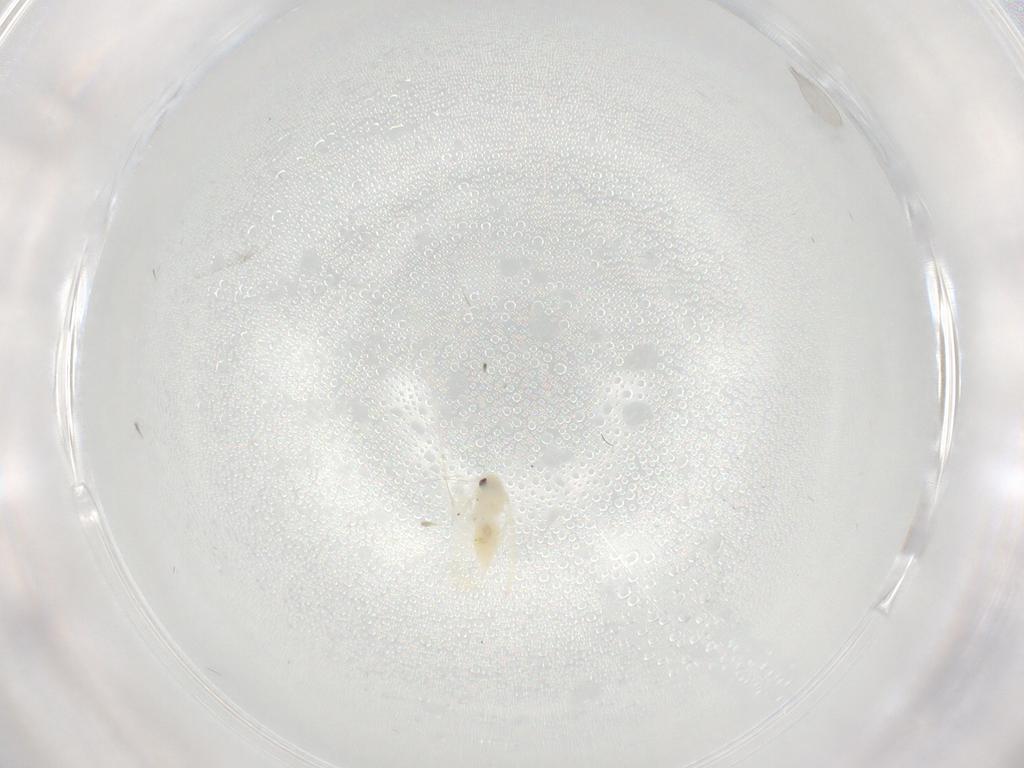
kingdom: Animalia
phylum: Arthropoda
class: Insecta
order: Hemiptera
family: Aleyrodidae
